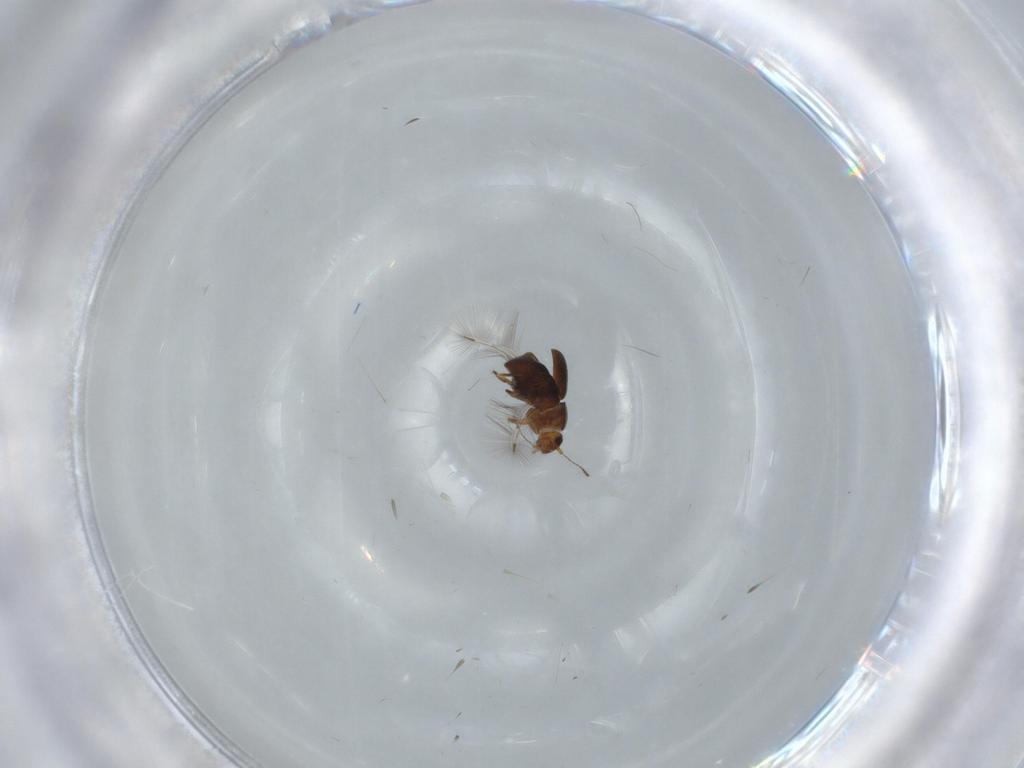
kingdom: Animalia
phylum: Arthropoda
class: Insecta
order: Coleoptera
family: Ptiliidae
